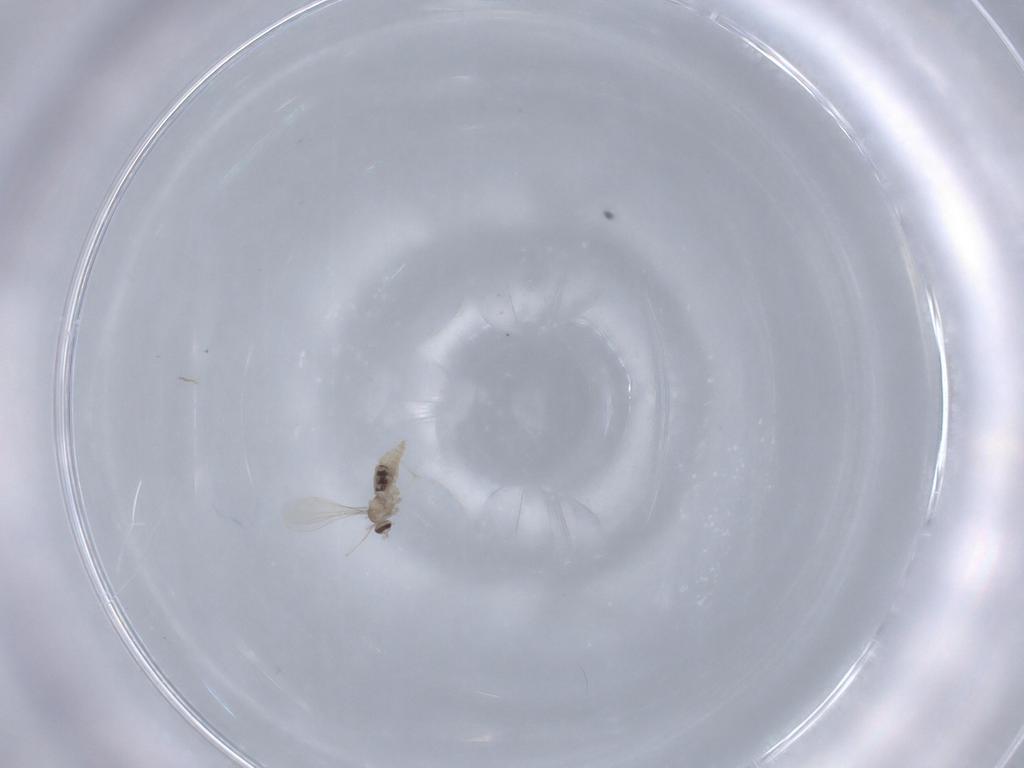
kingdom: Animalia
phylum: Arthropoda
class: Insecta
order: Diptera
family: Cecidomyiidae
